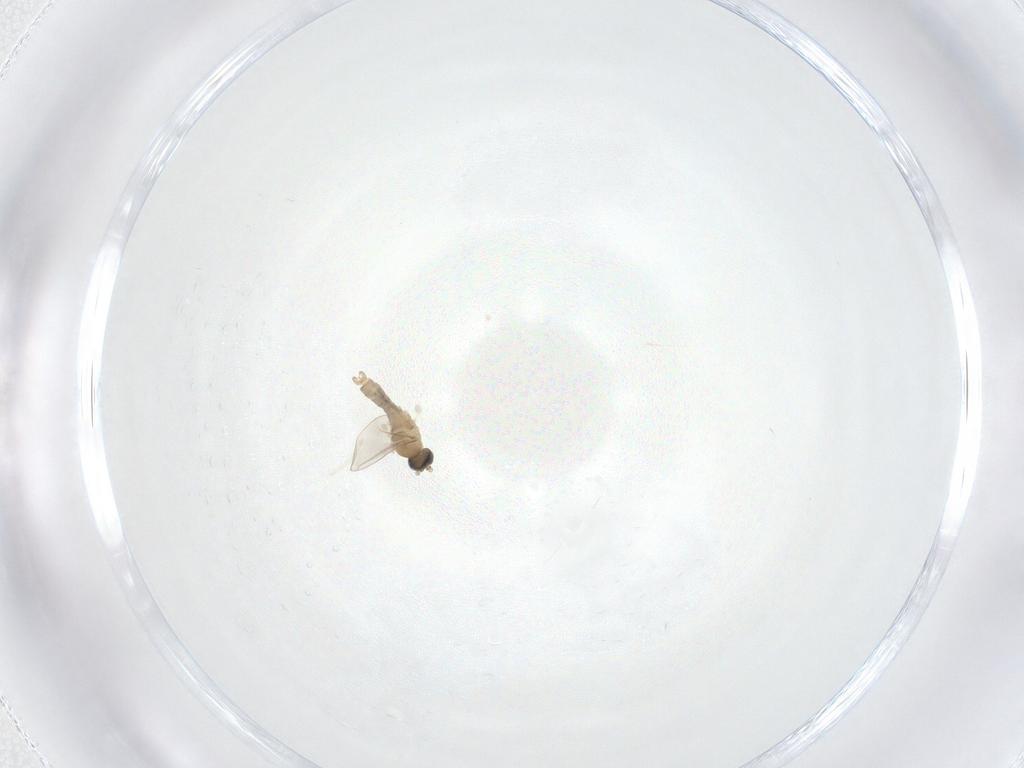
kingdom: Animalia
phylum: Arthropoda
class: Insecta
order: Diptera
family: Cecidomyiidae
